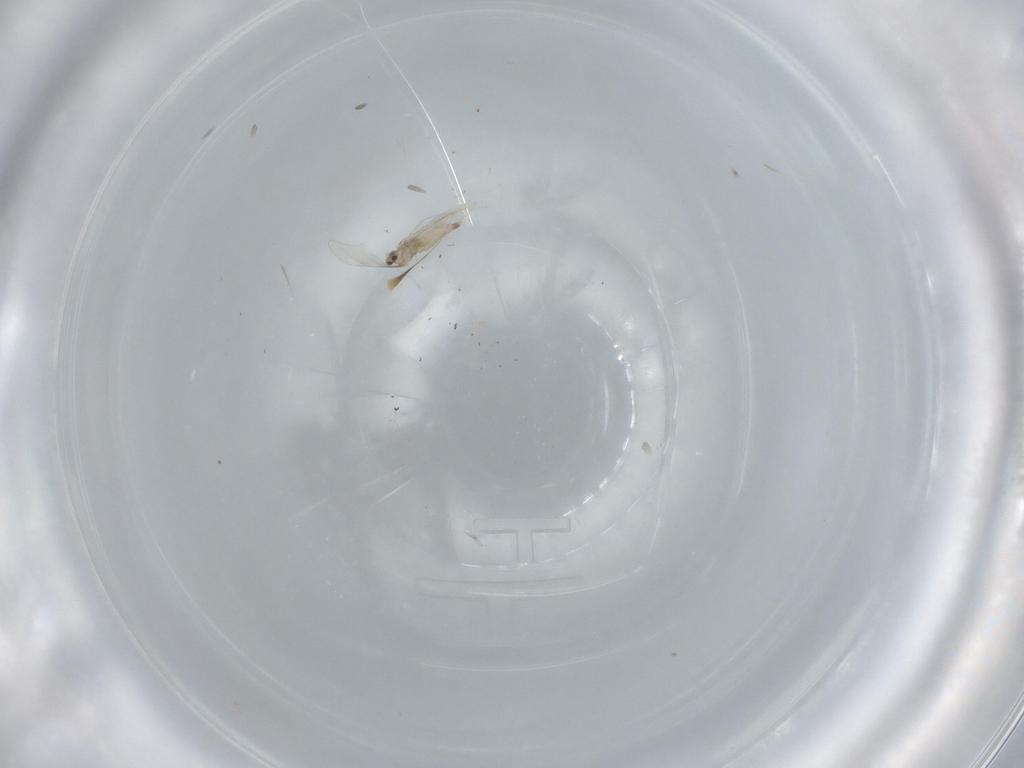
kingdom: Animalia
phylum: Arthropoda
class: Insecta
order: Diptera
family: Cecidomyiidae
